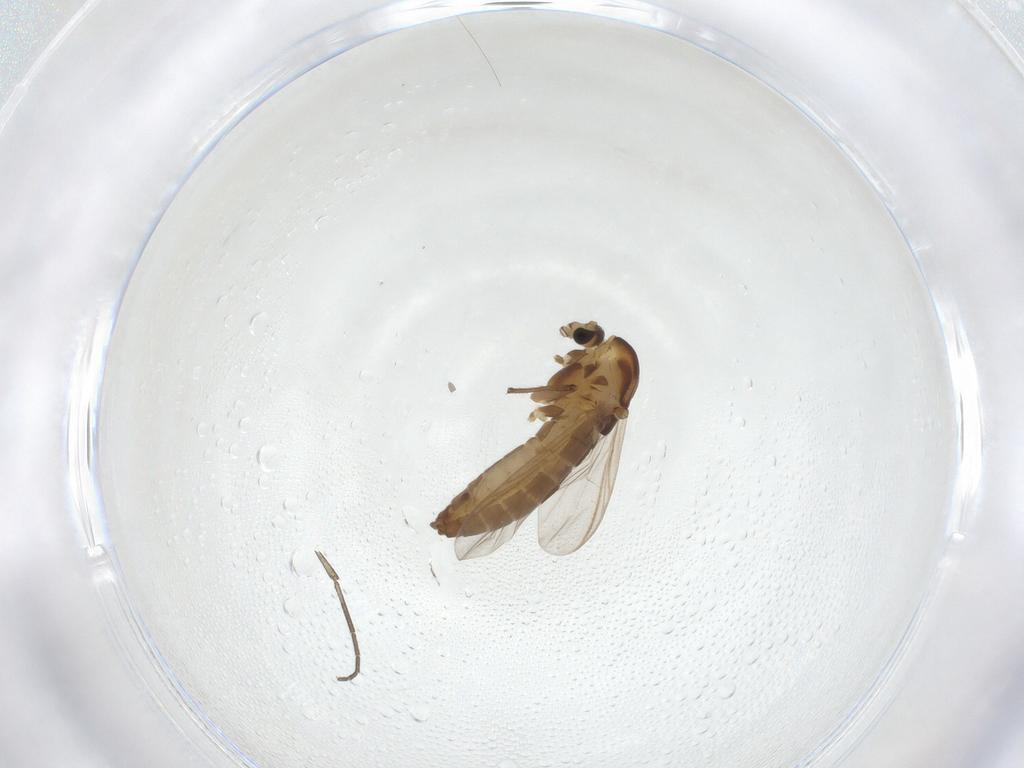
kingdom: Animalia
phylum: Arthropoda
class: Insecta
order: Diptera
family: Chironomidae
